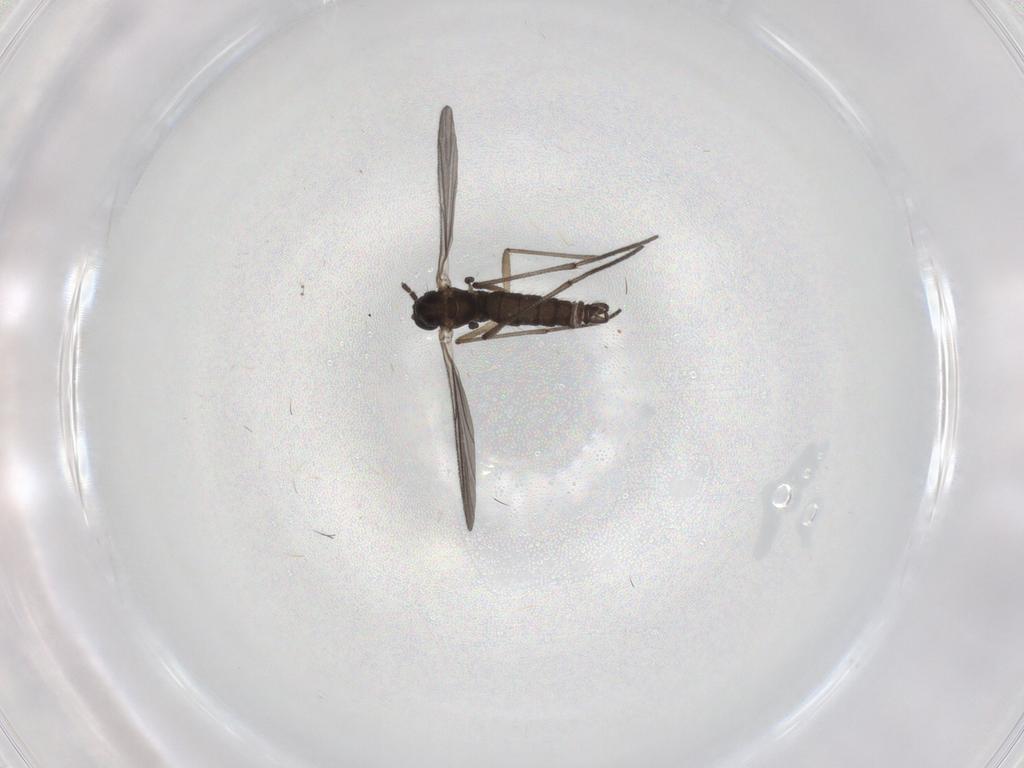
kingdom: Animalia
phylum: Arthropoda
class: Insecta
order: Diptera
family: Sciaridae
